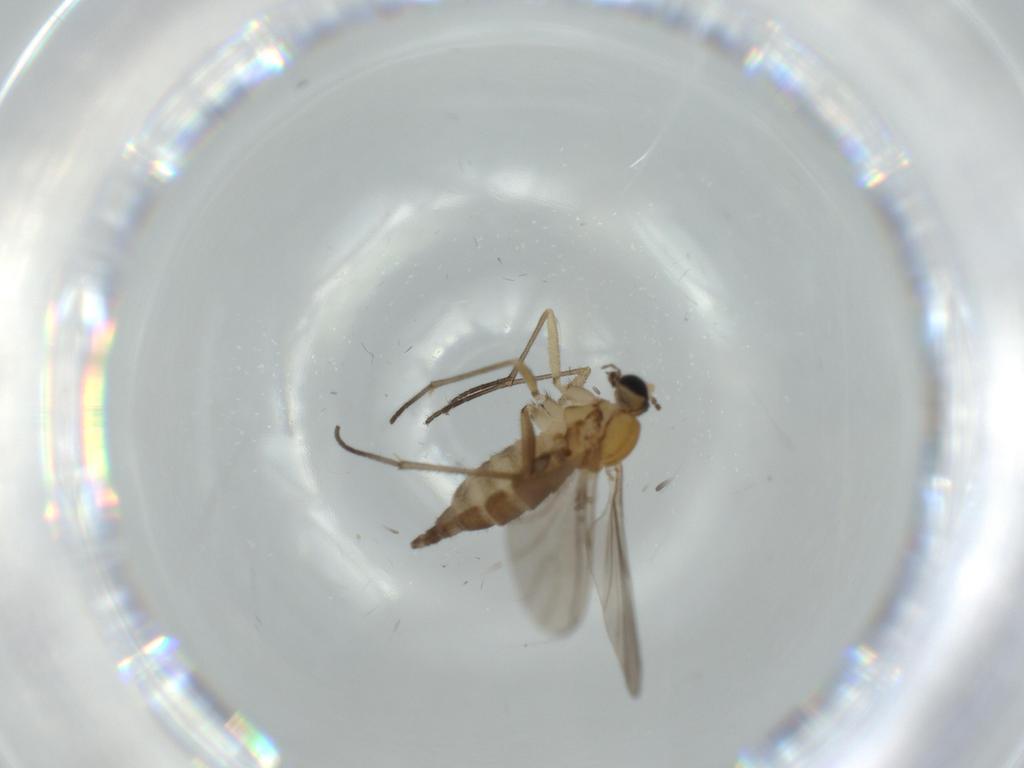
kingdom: Animalia
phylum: Arthropoda
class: Insecta
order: Diptera
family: Sciaridae
